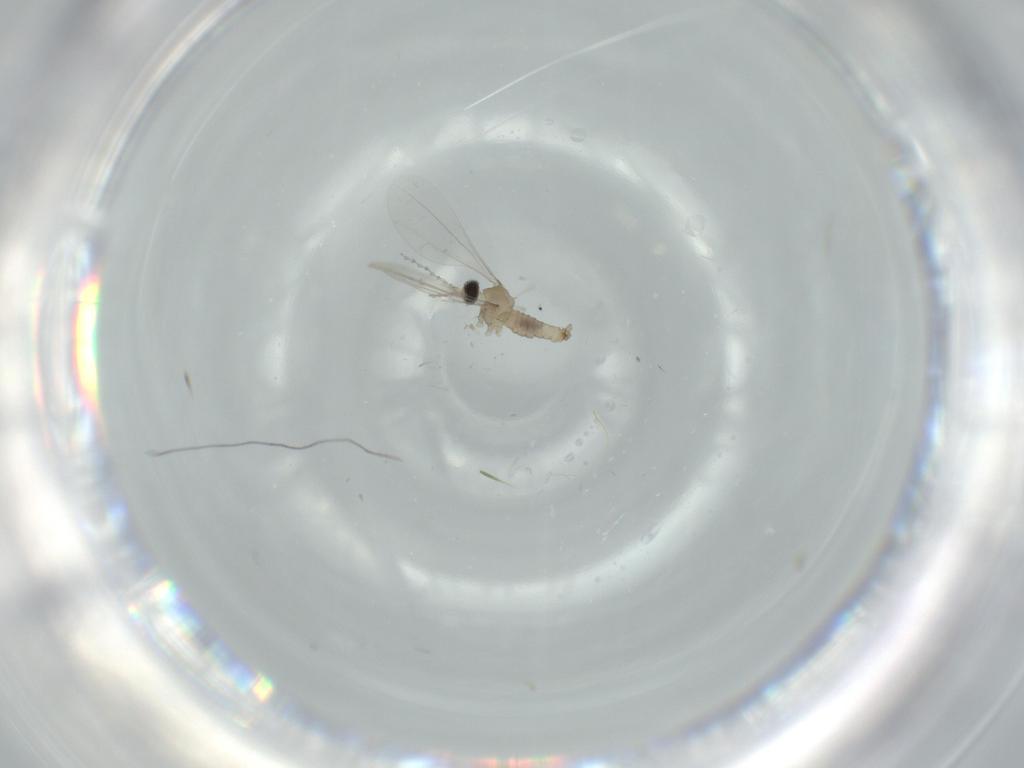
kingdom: Animalia
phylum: Arthropoda
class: Insecta
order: Diptera
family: Cecidomyiidae
